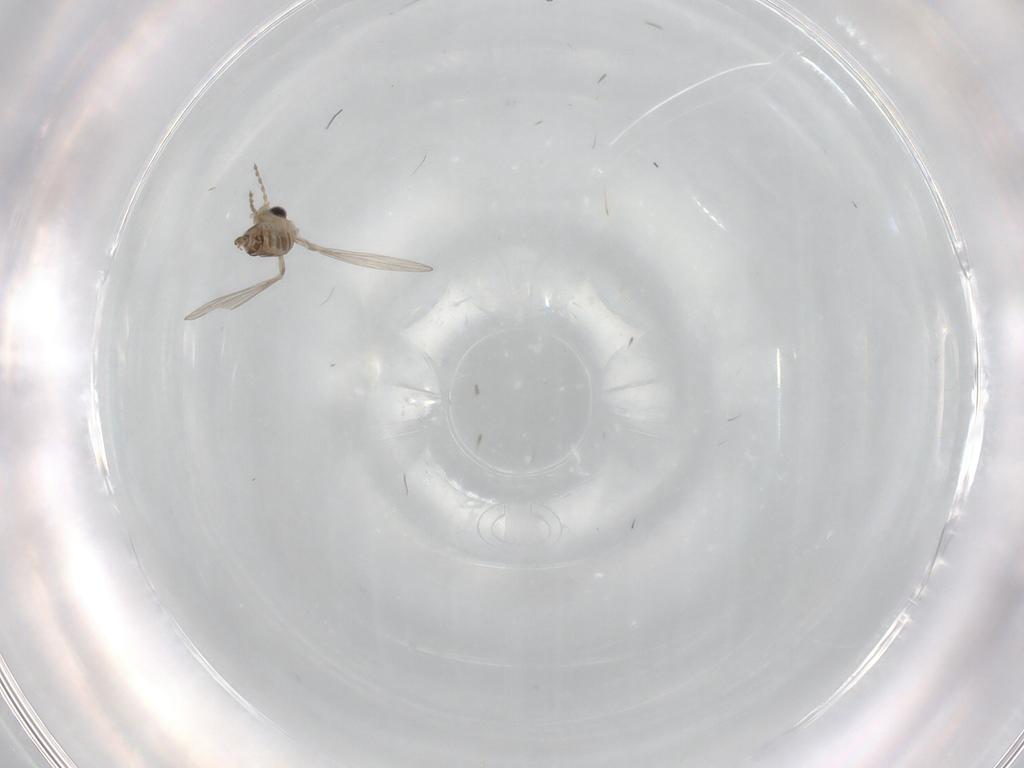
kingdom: Animalia
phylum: Arthropoda
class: Insecta
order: Diptera
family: Psychodidae
